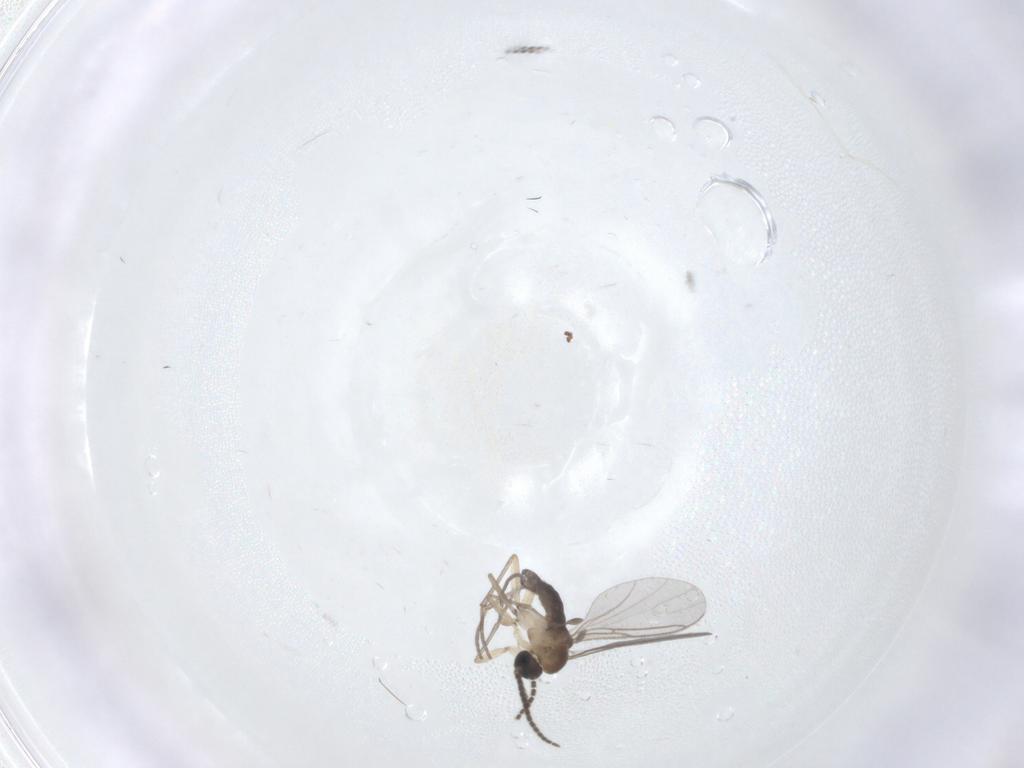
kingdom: Animalia
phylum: Arthropoda
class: Insecta
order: Diptera
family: Sciaridae
